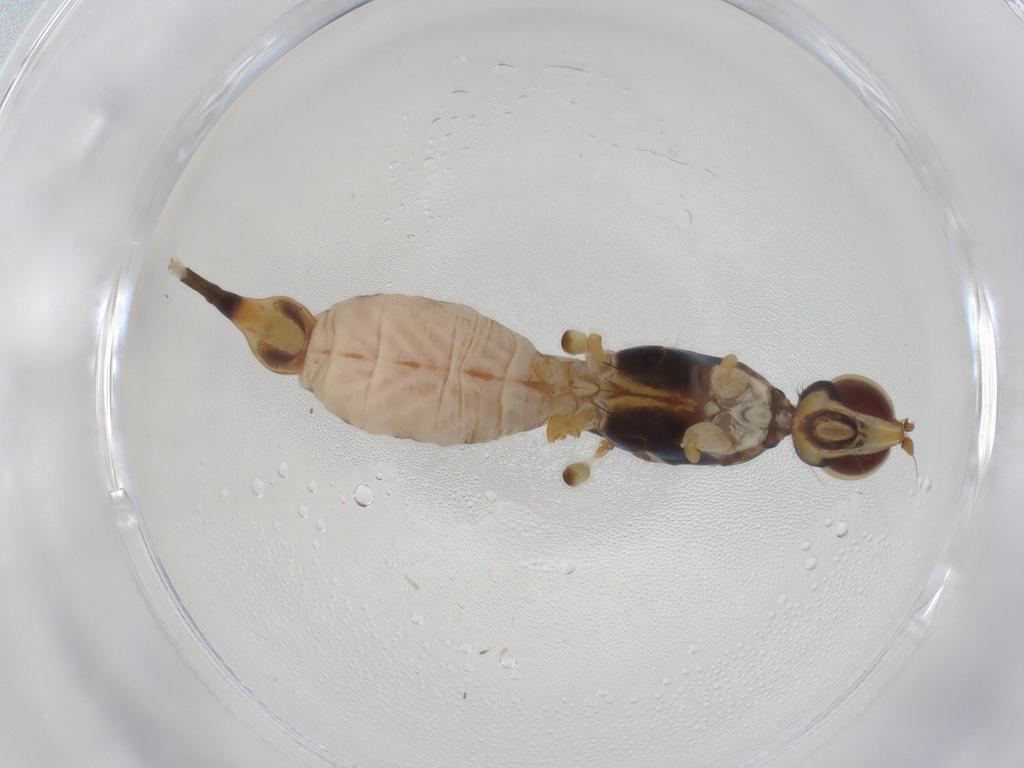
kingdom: Animalia
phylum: Arthropoda
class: Insecta
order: Diptera
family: Micropezidae
